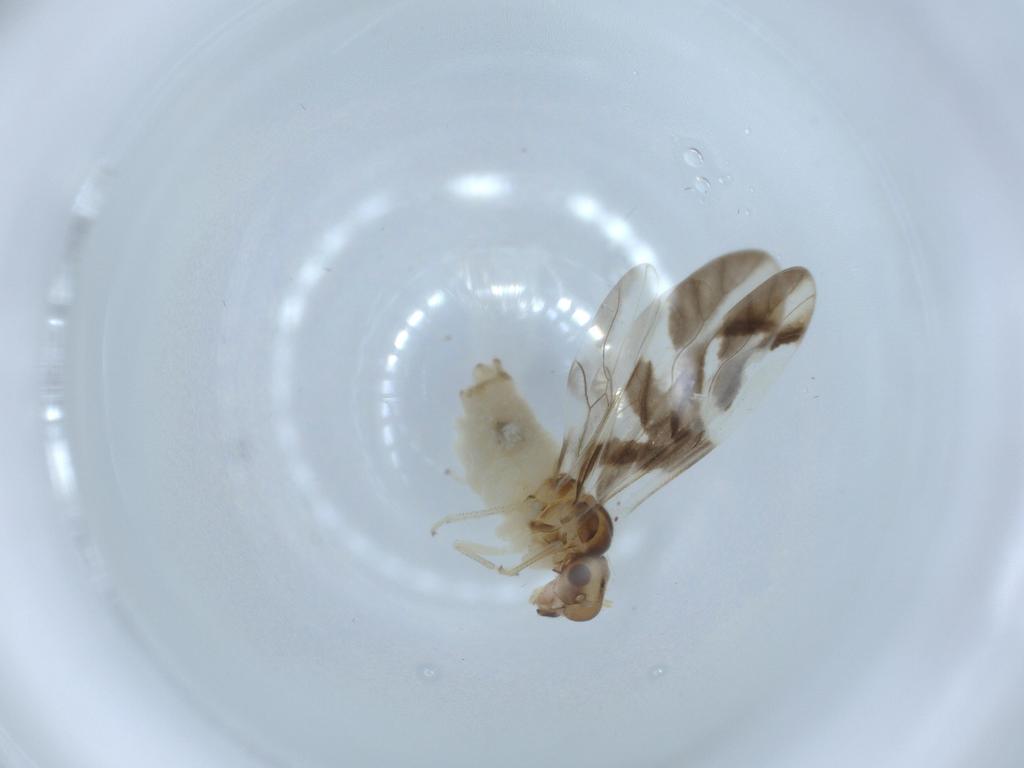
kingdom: Animalia
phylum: Arthropoda
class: Insecta
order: Psocodea
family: Caeciliusidae
